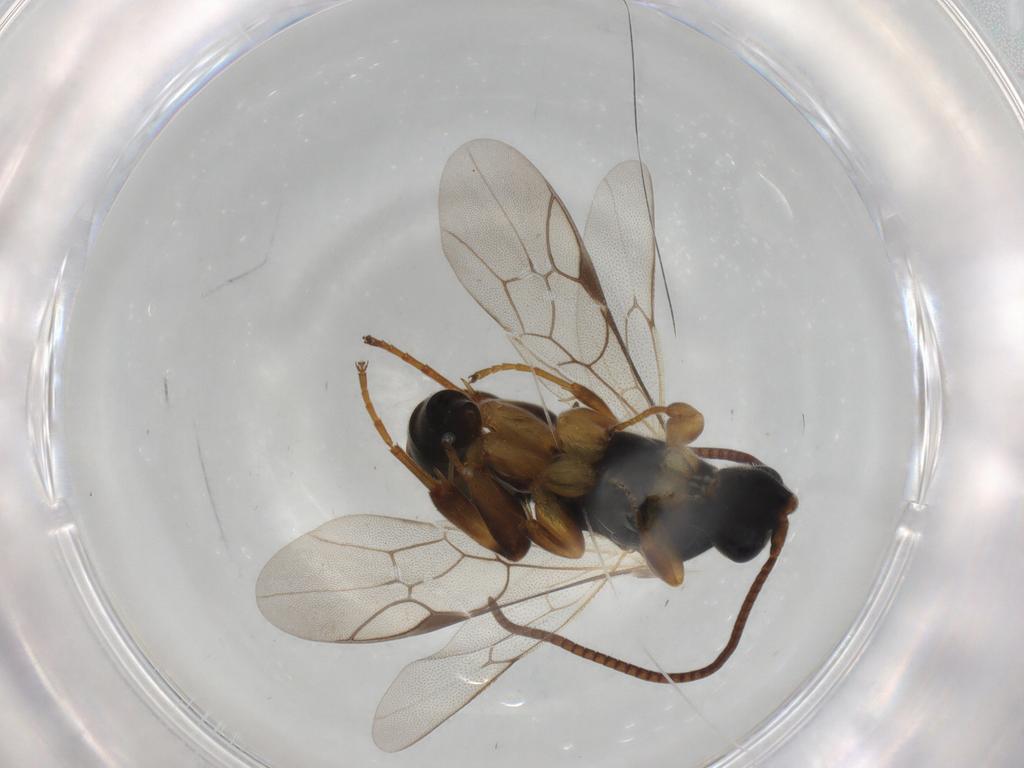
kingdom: Animalia
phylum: Arthropoda
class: Insecta
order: Hymenoptera
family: Ichneumonidae
